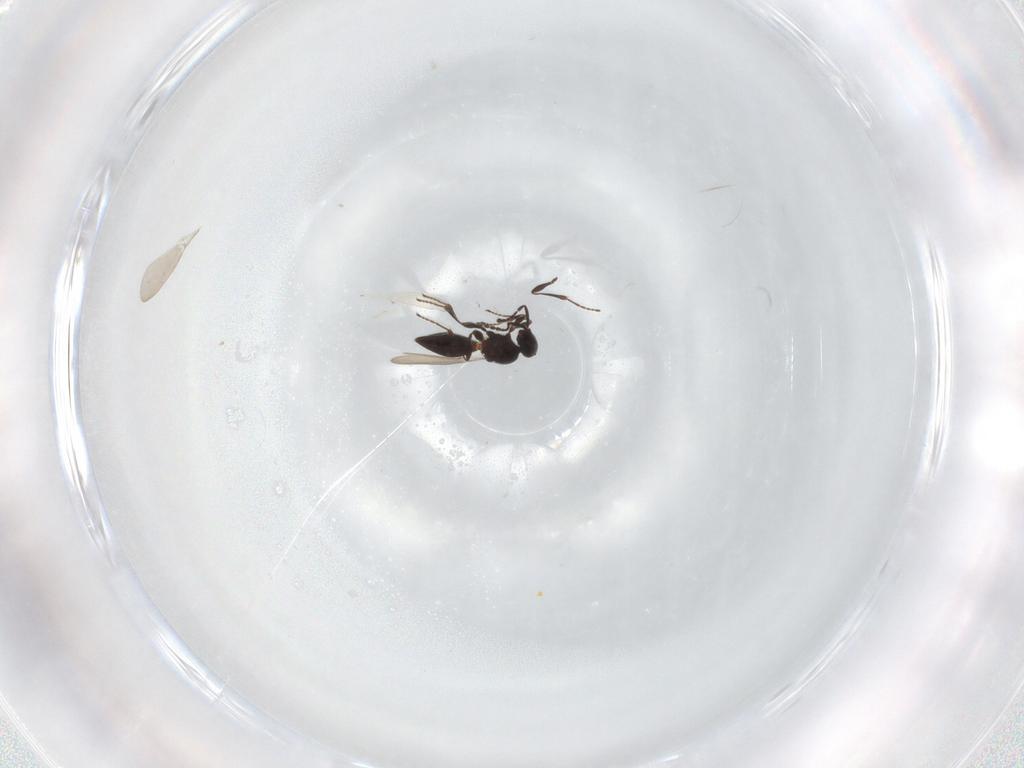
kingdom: Animalia
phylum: Arthropoda
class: Insecta
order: Hymenoptera
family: Platygastridae
